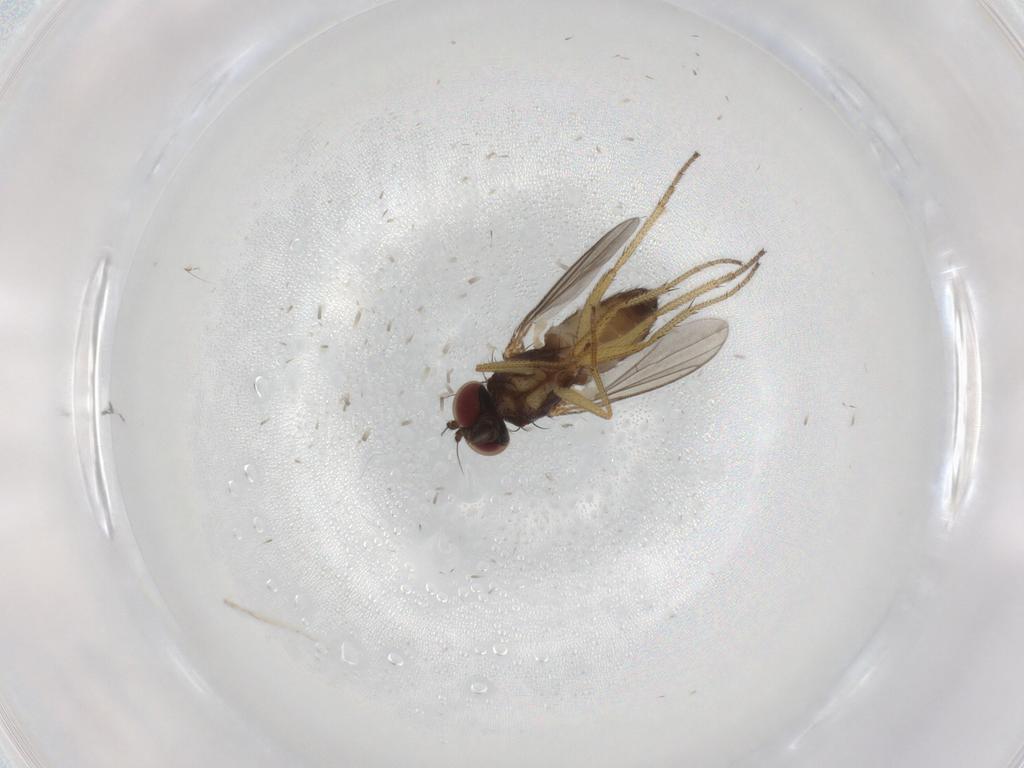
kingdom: Animalia
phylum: Arthropoda
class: Insecta
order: Diptera
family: Dolichopodidae
